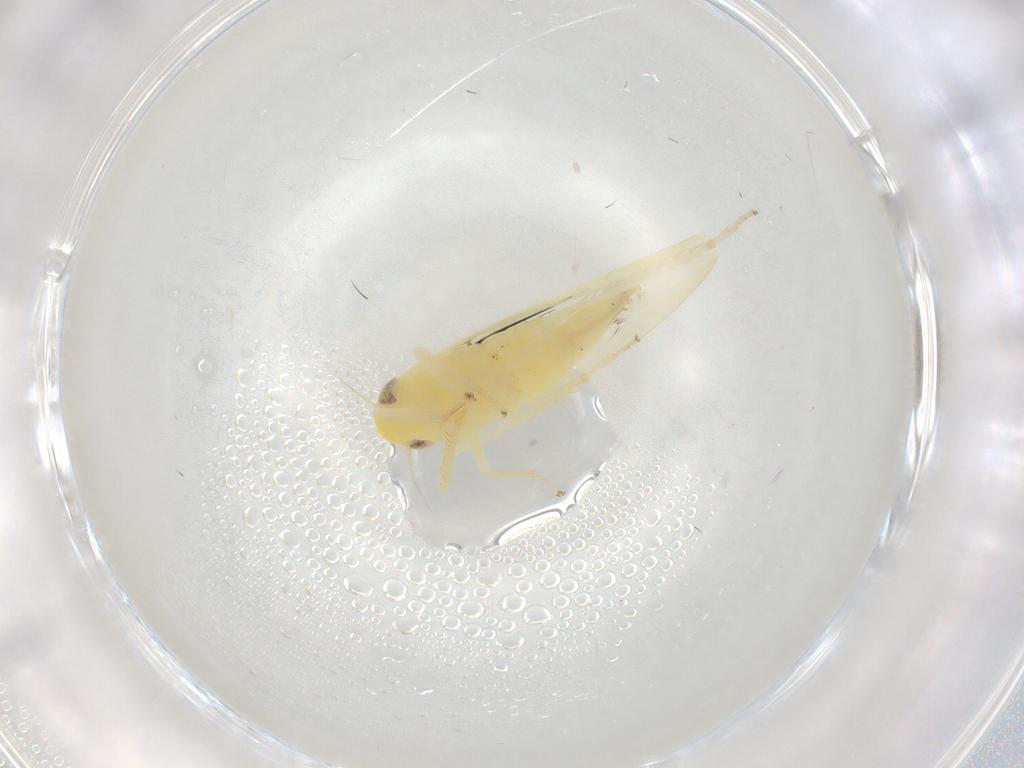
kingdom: Animalia
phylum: Arthropoda
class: Insecta
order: Hemiptera
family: Cicadellidae
